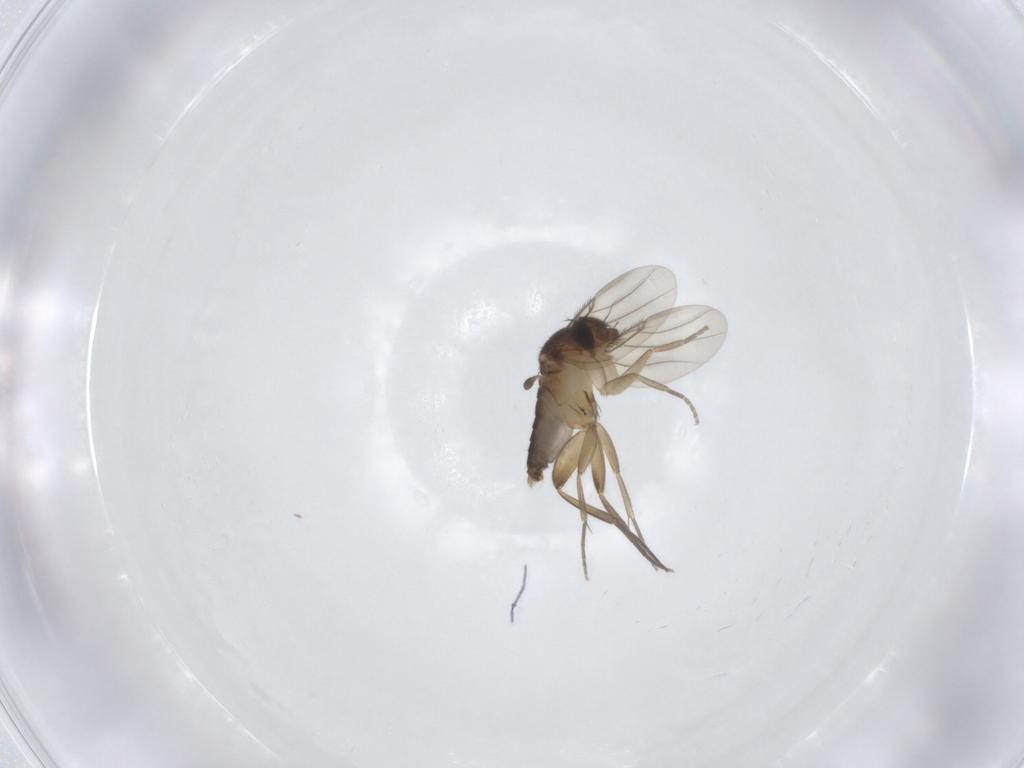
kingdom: Animalia
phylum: Arthropoda
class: Insecta
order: Diptera
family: Phoridae
